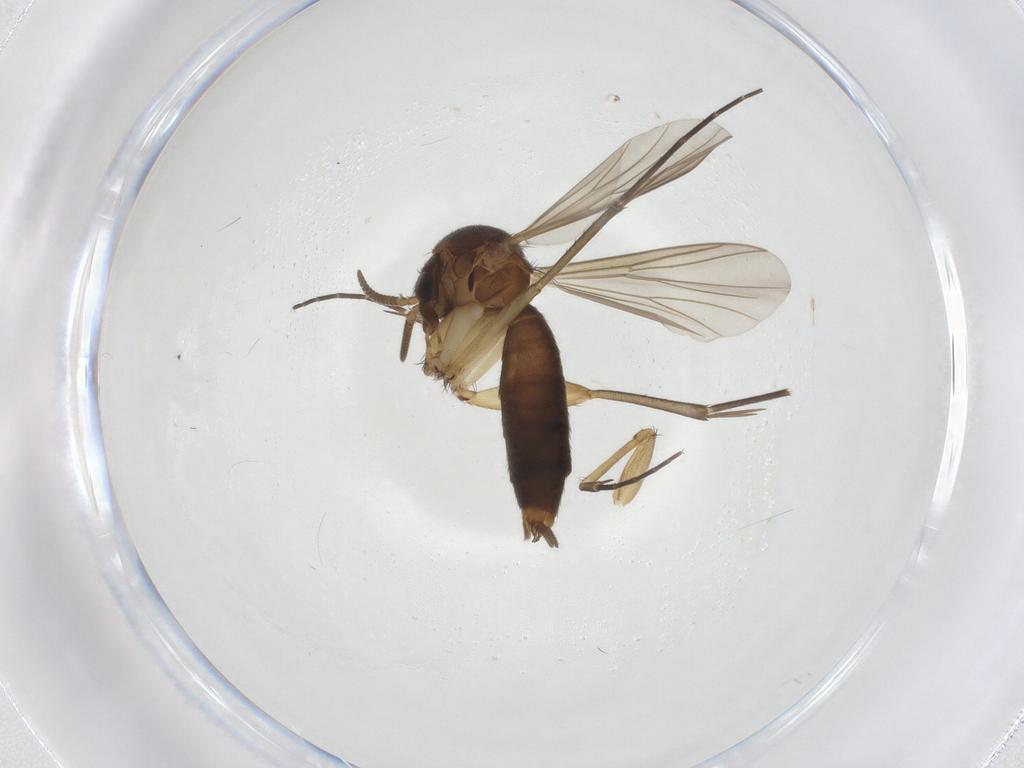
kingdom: Animalia
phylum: Arthropoda
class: Insecta
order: Diptera
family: Mycetophilidae
